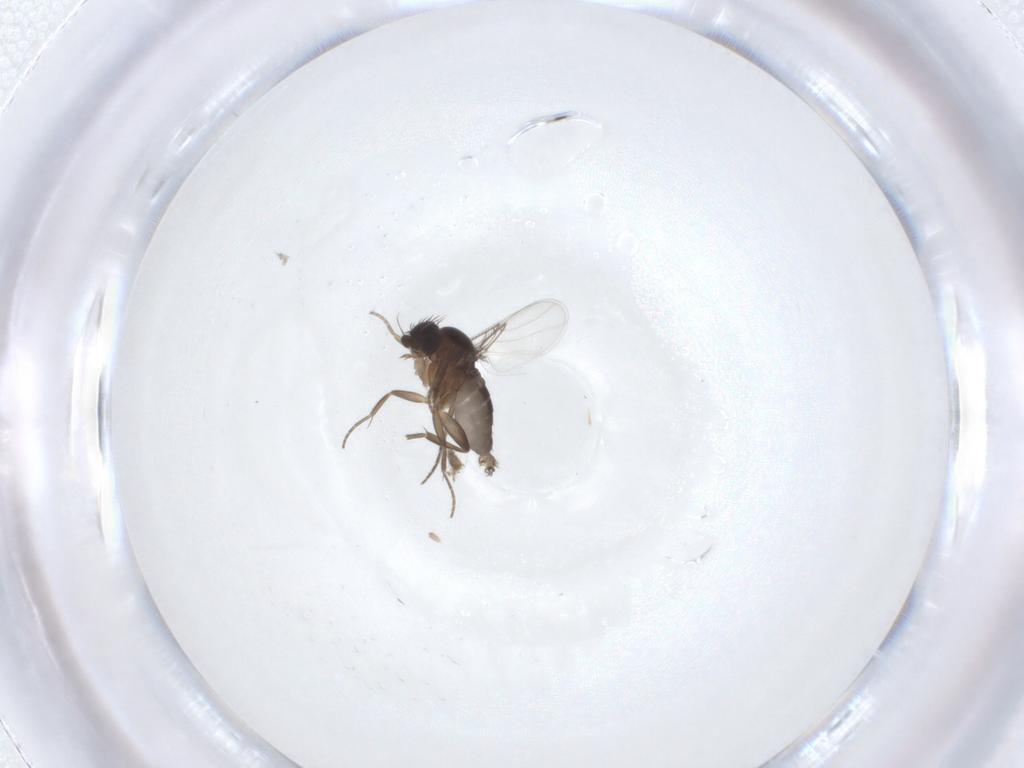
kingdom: Animalia
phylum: Arthropoda
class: Insecta
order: Diptera
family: Phoridae
